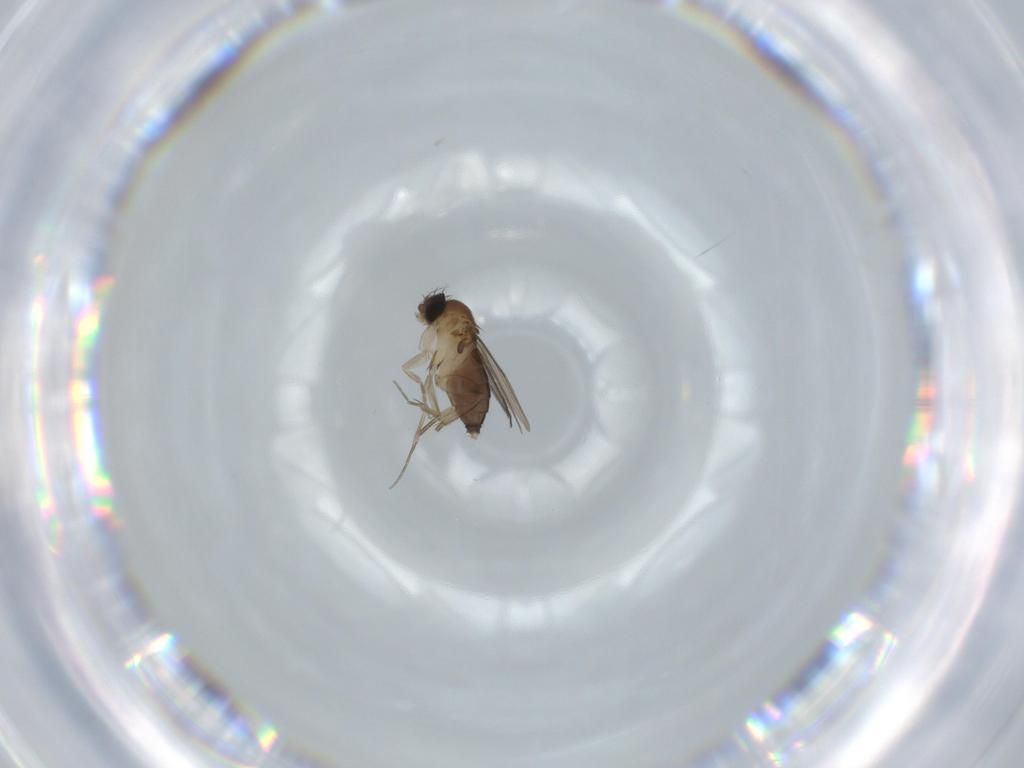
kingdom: Animalia
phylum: Arthropoda
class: Insecta
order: Diptera
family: Phoridae
